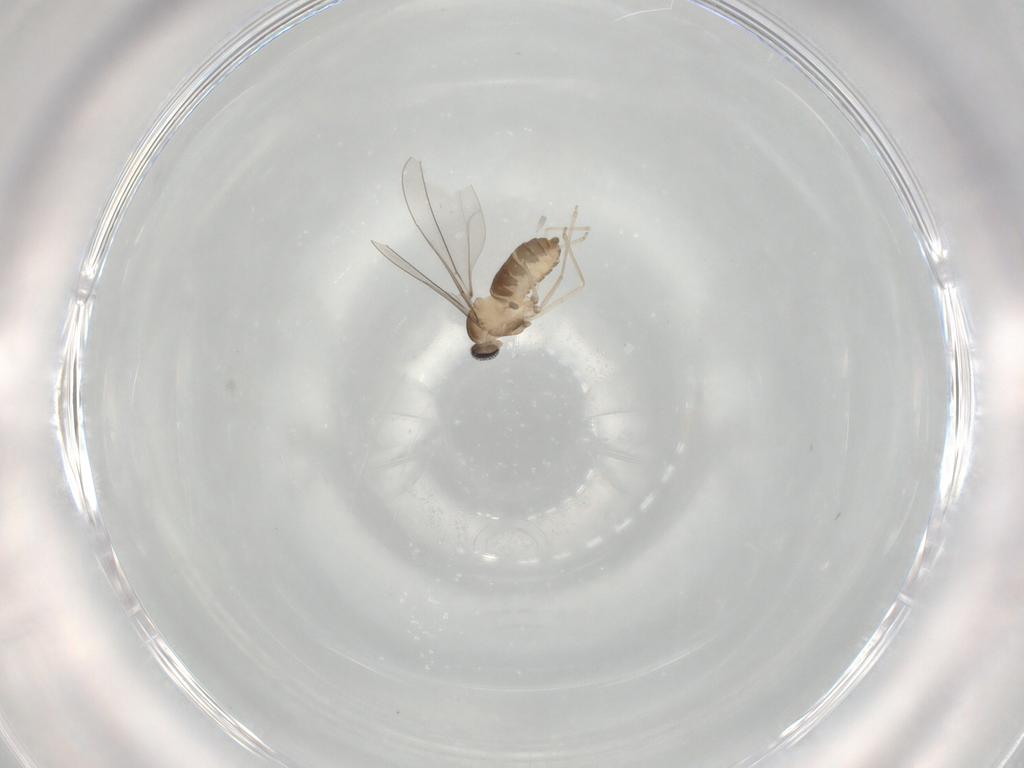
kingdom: Animalia
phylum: Arthropoda
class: Insecta
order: Diptera
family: Cecidomyiidae
